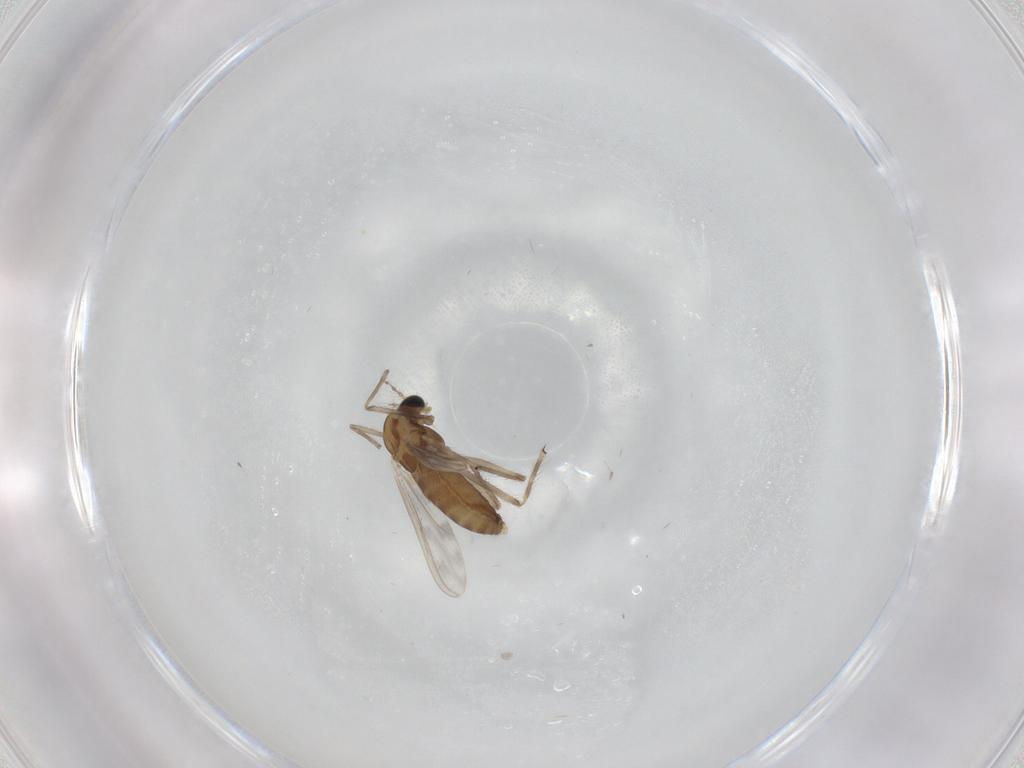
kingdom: Animalia
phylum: Arthropoda
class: Insecta
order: Diptera
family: Chironomidae
